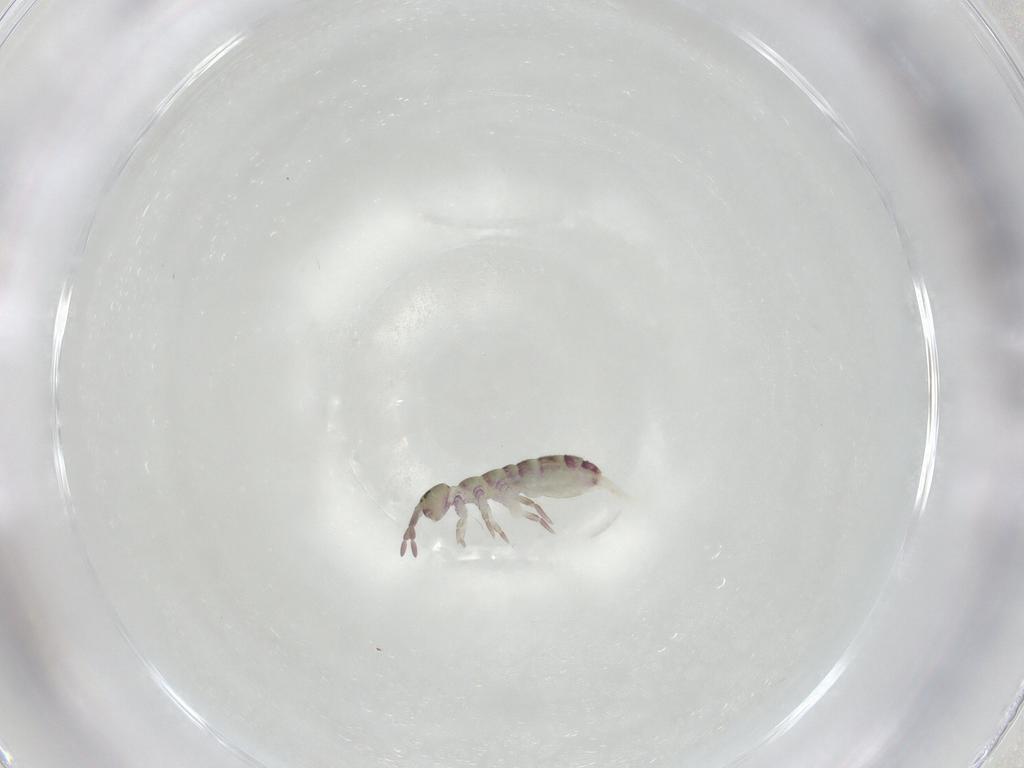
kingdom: Animalia
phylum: Arthropoda
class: Collembola
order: Entomobryomorpha
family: Isotomidae
